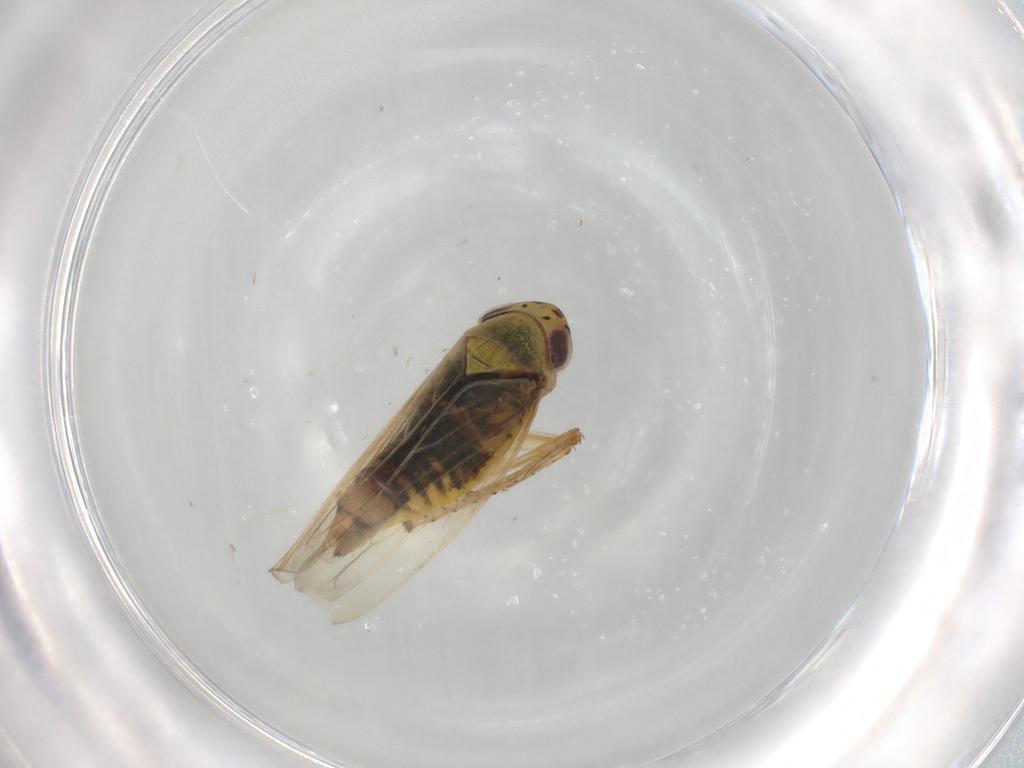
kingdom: Animalia
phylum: Arthropoda
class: Insecta
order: Hemiptera
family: Cicadellidae
